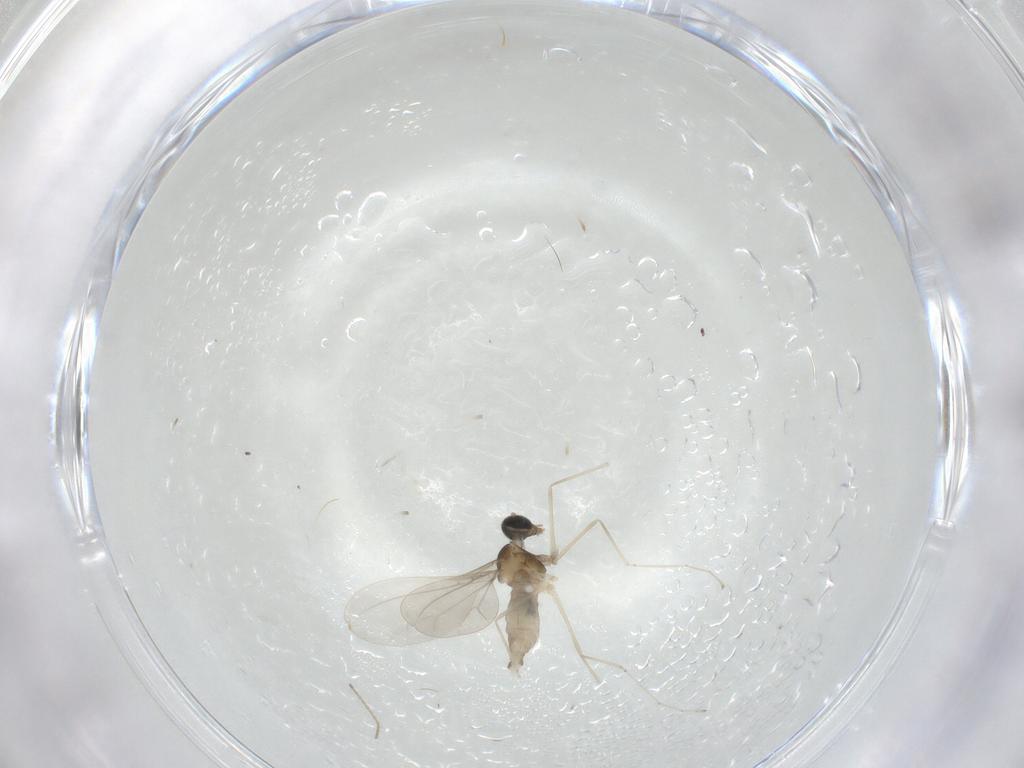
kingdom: Animalia
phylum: Arthropoda
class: Insecta
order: Diptera
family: Cecidomyiidae
